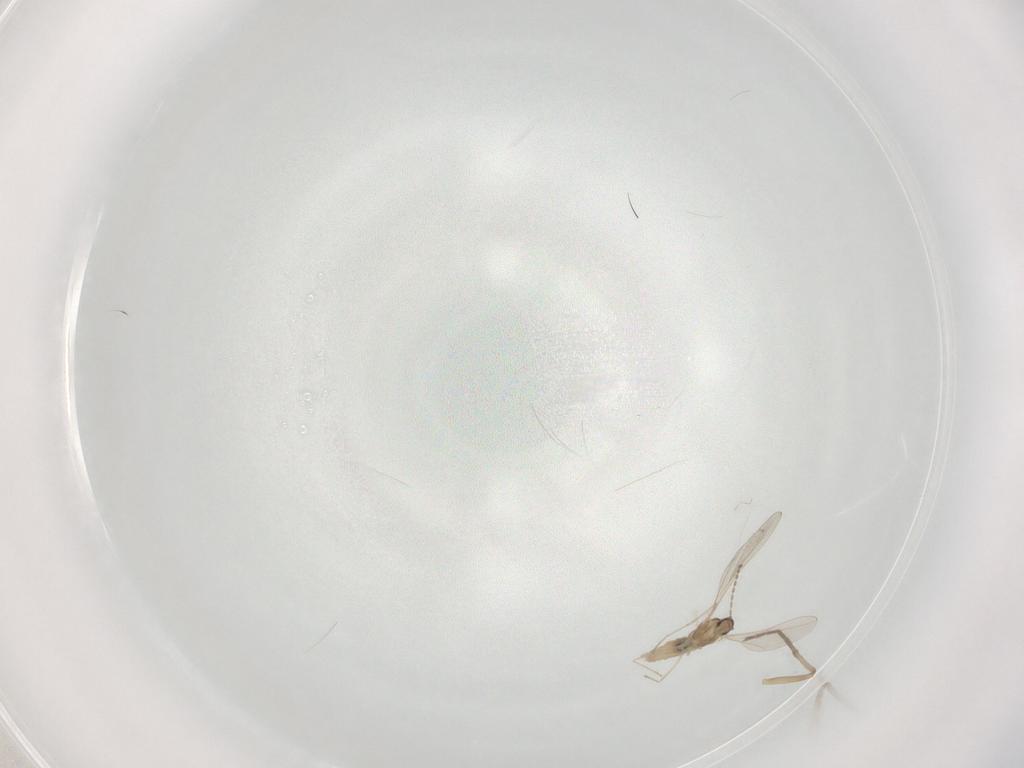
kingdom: Animalia
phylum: Arthropoda
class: Insecta
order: Diptera
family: Cecidomyiidae
